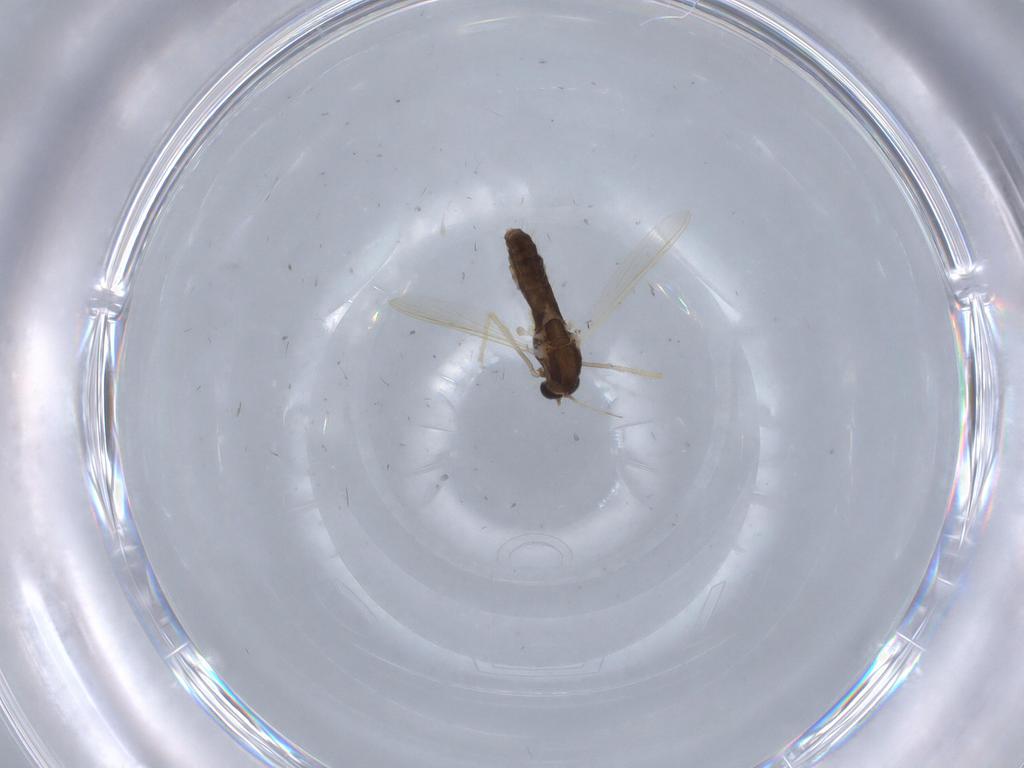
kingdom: Animalia
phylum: Arthropoda
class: Insecta
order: Diptera
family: Chironomidae
